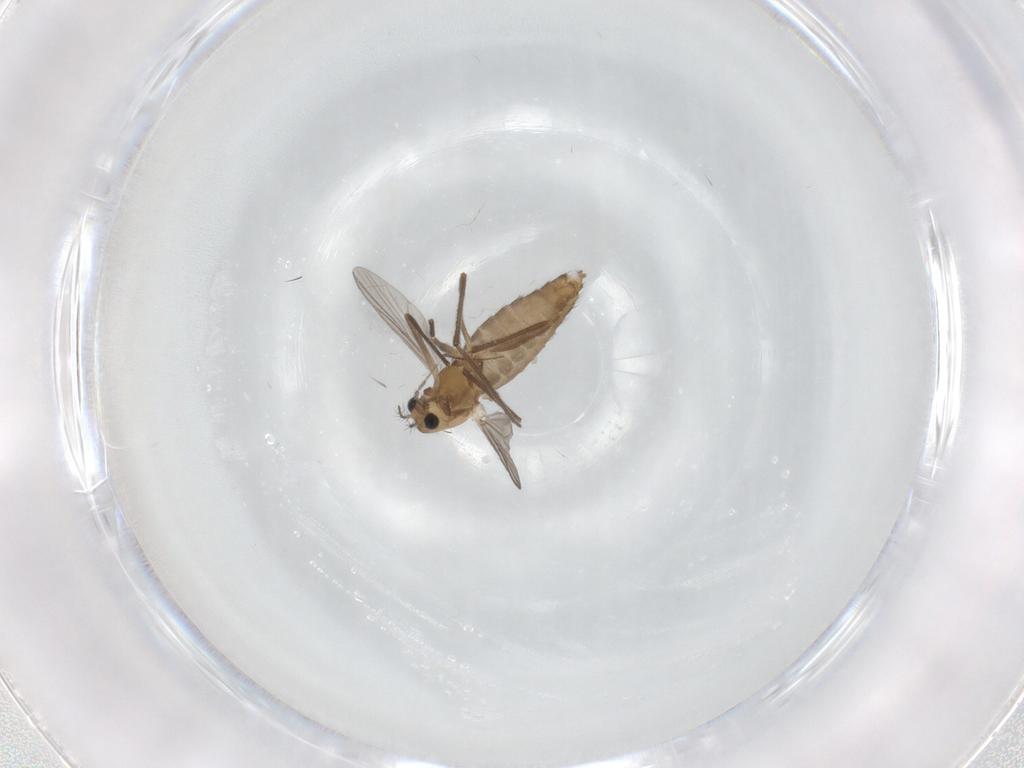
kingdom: Animalia
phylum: Arthropoda
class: Insecta
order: Diptera
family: Chironomidae
